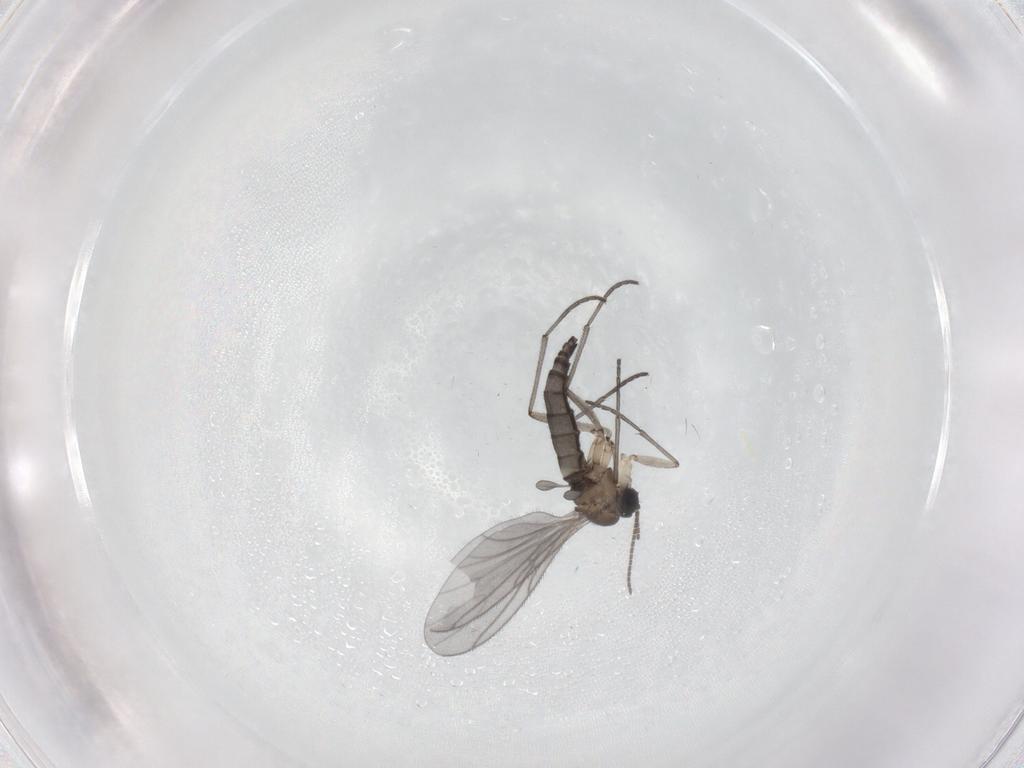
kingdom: Animalia
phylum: Arthropoda
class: Insecta
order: Diptera
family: Sciaridae
